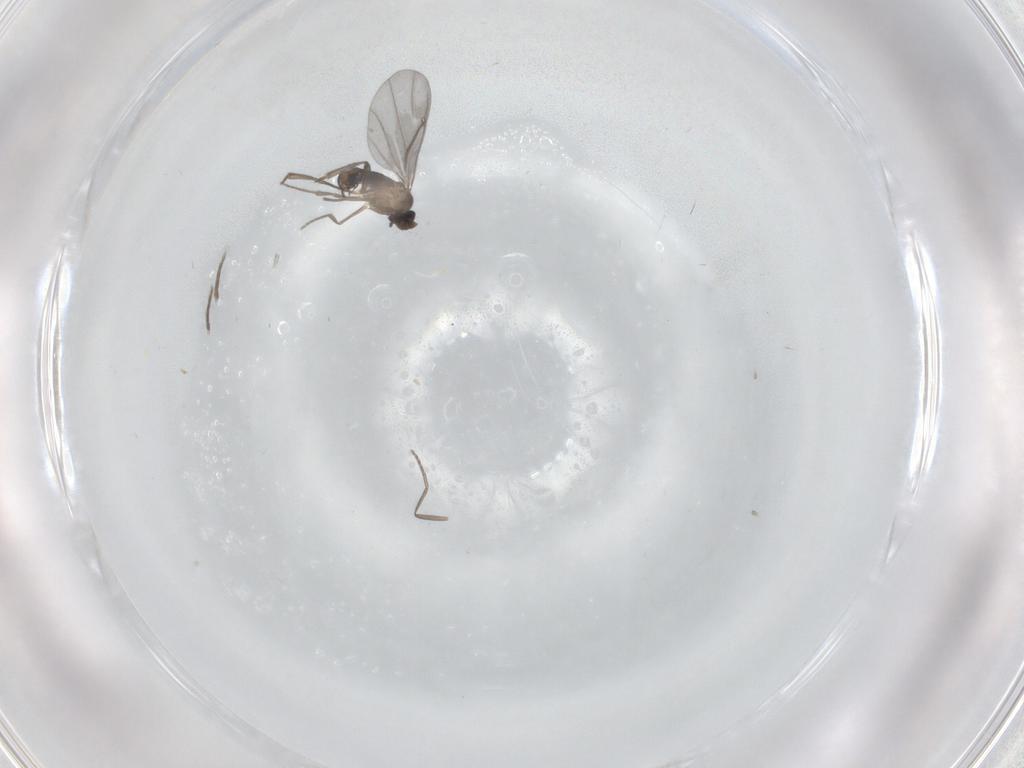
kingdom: Animalia
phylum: Arthropoda
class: Insecta
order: Diptera
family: Phoridae
